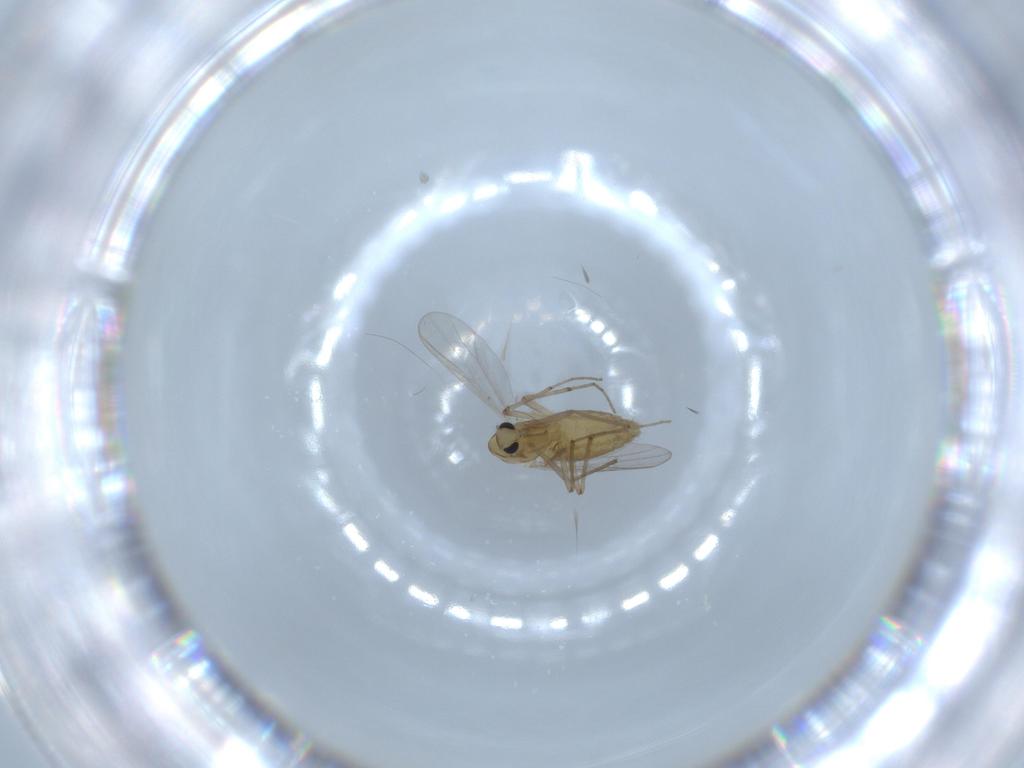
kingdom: Animalia
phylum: Arthropoda
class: Insecta
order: Diptera
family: Chironomidae
